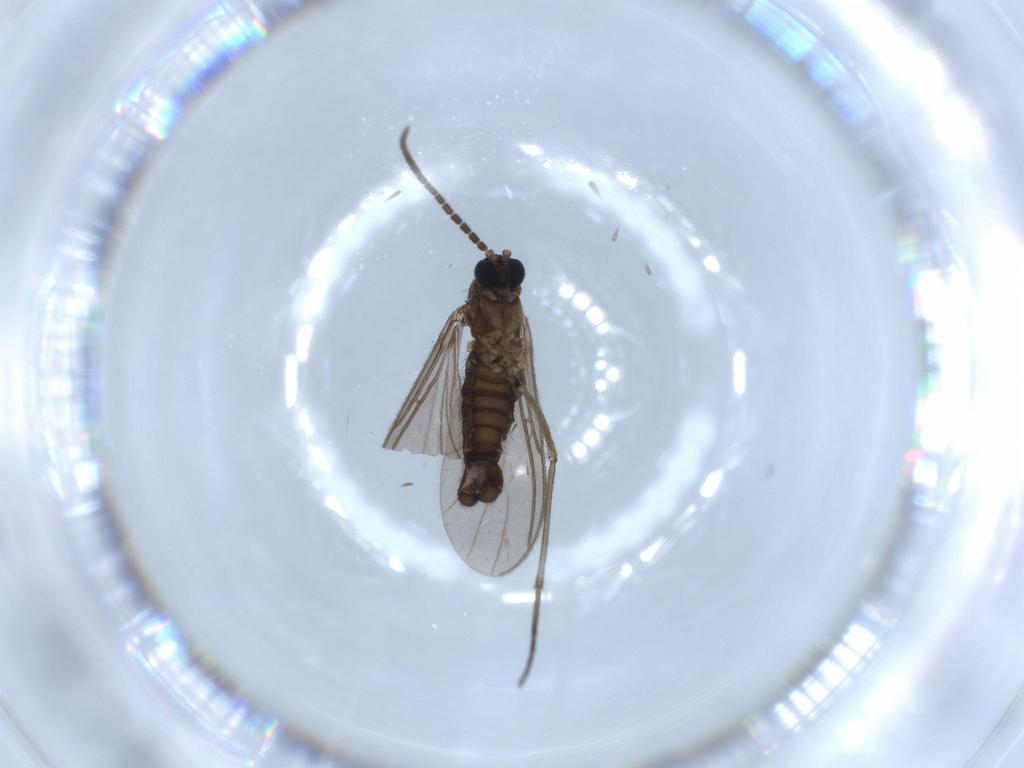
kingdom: Animalia
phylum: Arthropoda
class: Insecta
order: Diptera
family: Sciaridae
